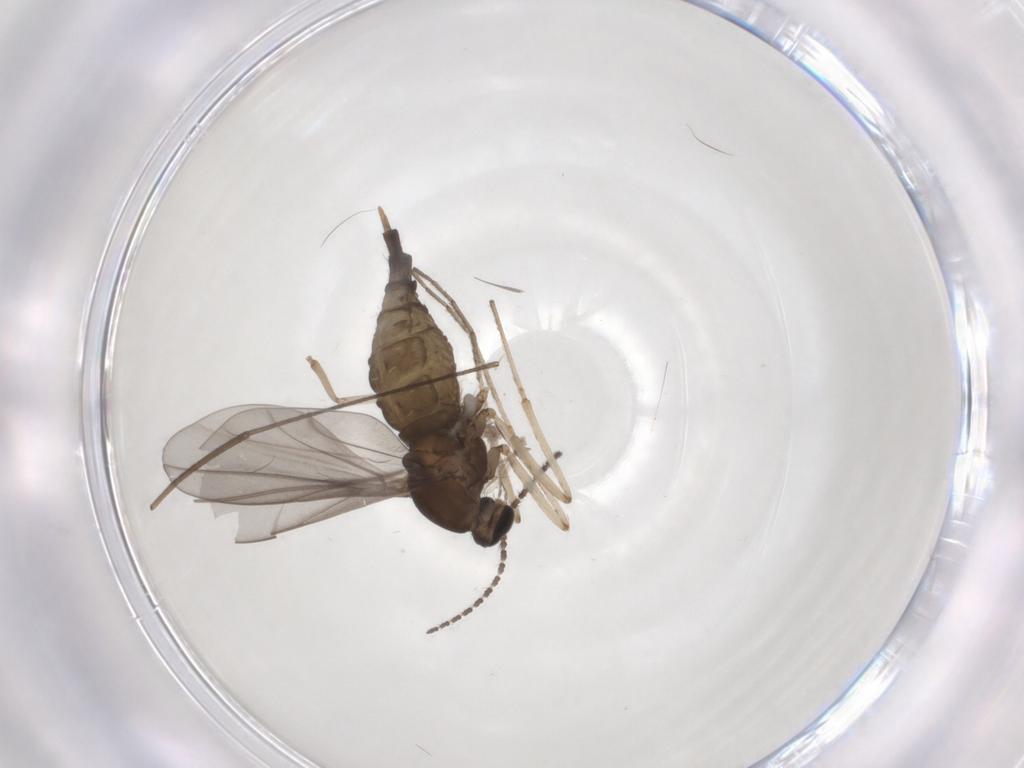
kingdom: Animalia
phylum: Arthropoda
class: Insecta
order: Diptera
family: Cecidomyiidae
